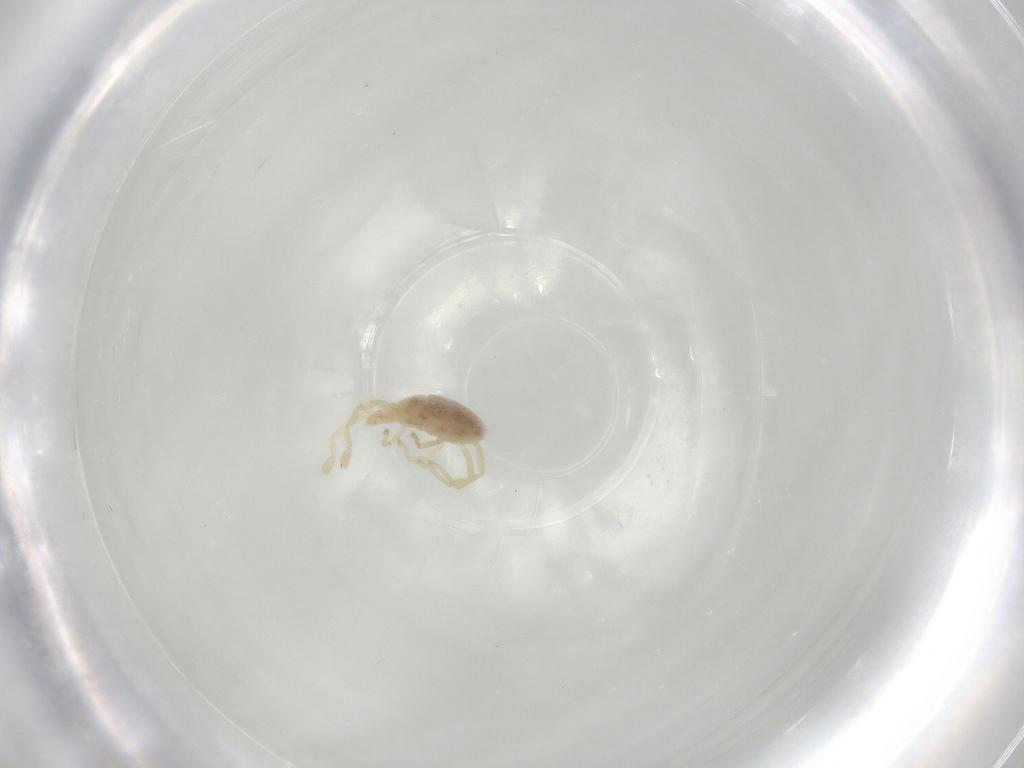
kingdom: Animalia
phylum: Arthropoda
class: Arachnida
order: Trombidiformes
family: Erythraeidae
